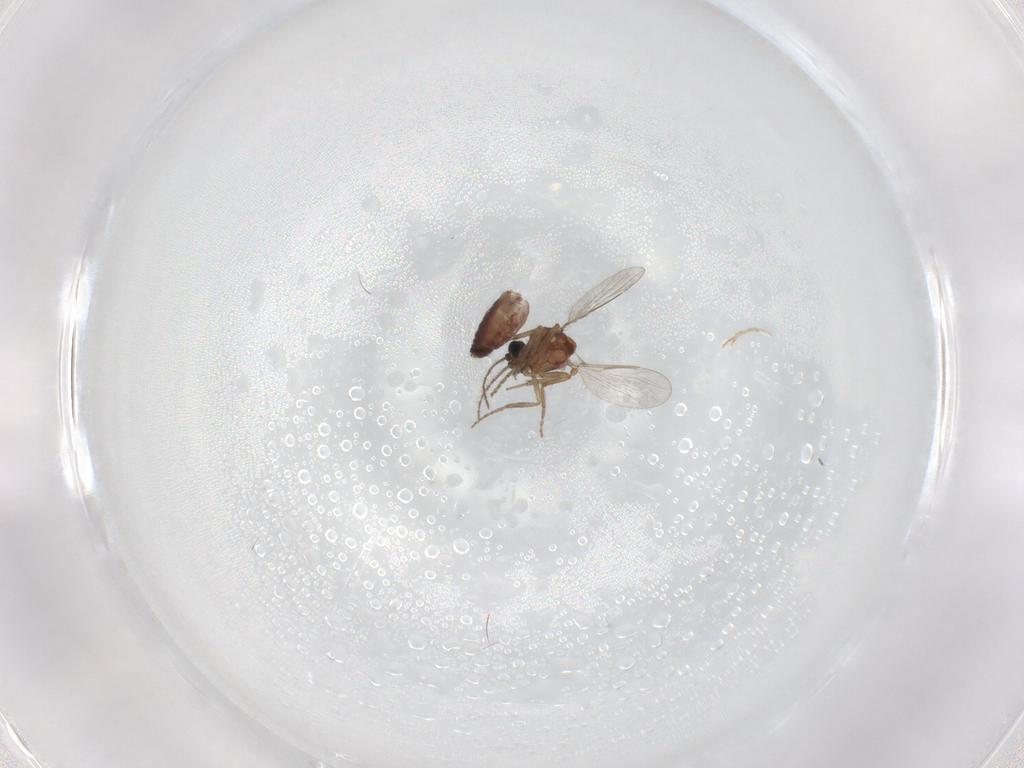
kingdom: Animalia
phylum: Arthropoda
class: Insecta
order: Diptera
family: Ceratopogonidae
